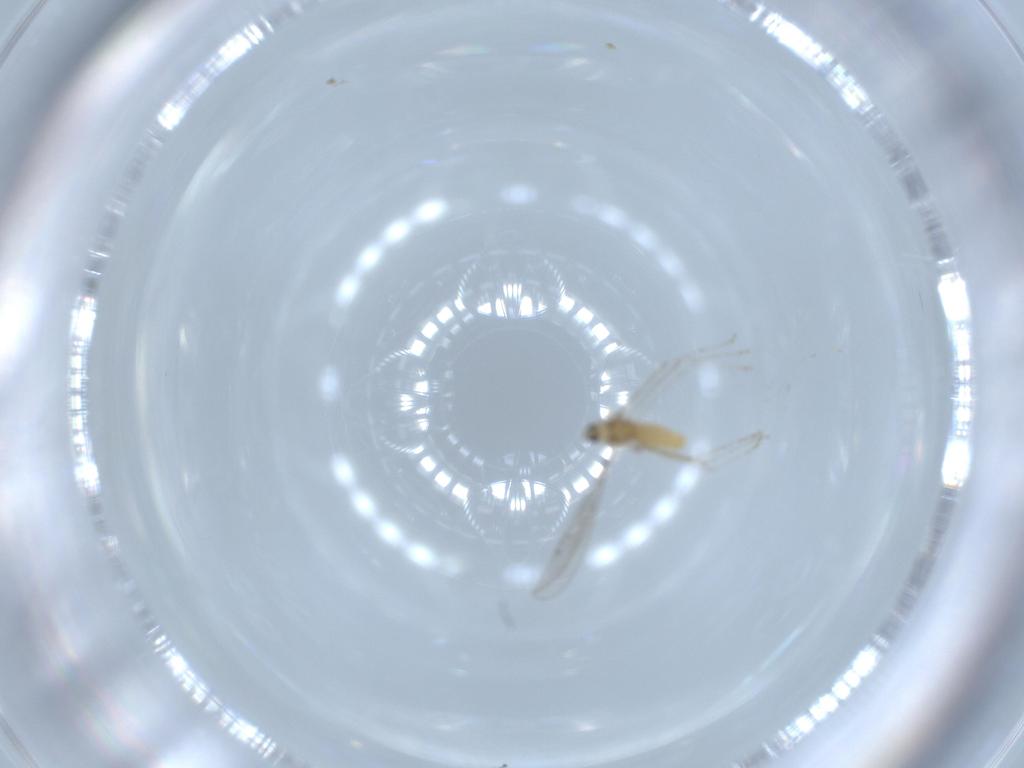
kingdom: Animalia
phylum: Arthropoda
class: Insecta
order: Diptera
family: Cecidomyiidae
